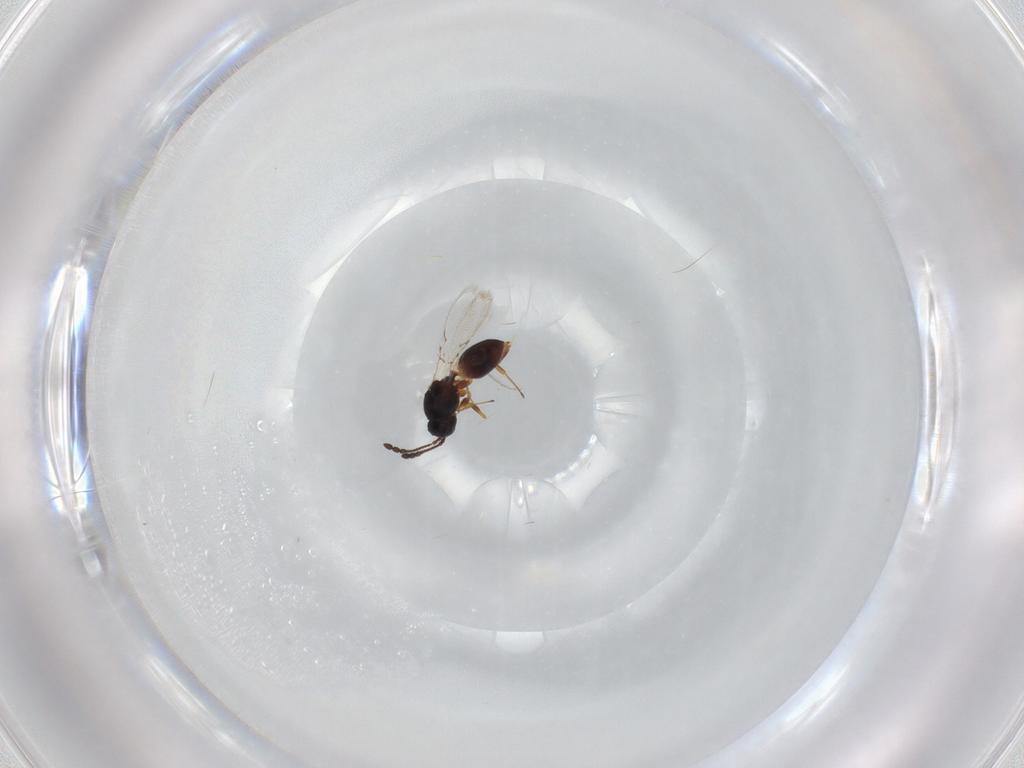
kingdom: Animalia
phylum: Arthropoda
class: Insecta
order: Hymenoptera
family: Figitidae
